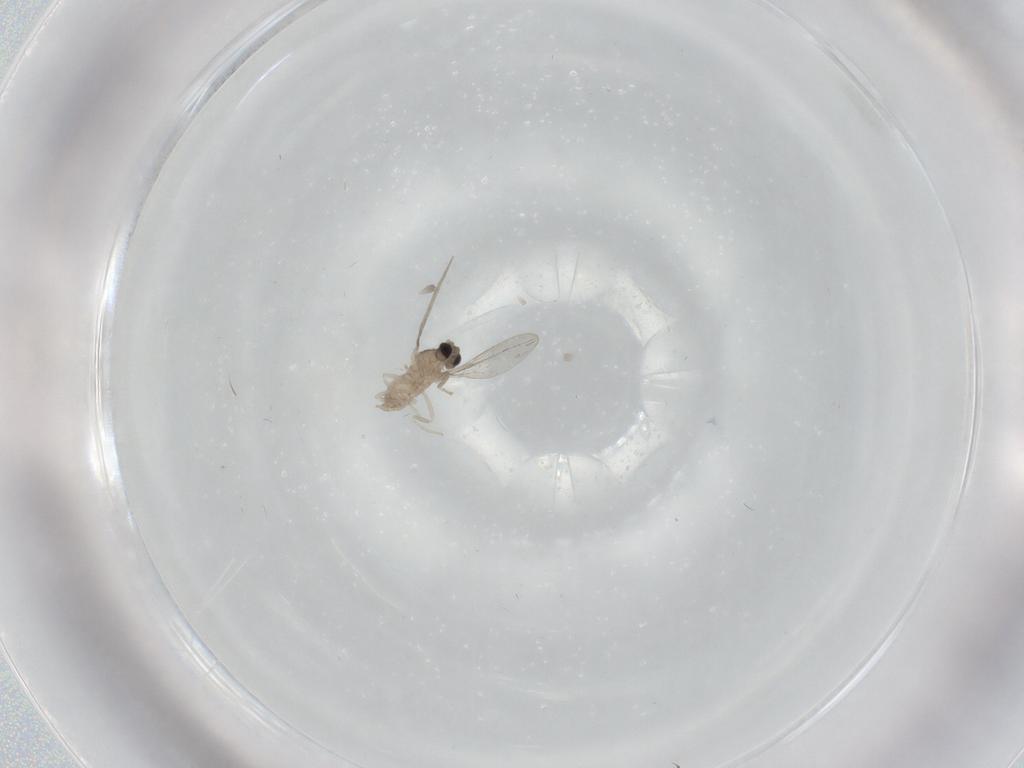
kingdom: Animalia
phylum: Arthropoda
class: Insecta
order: Diptera
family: Cecidomyiidae
